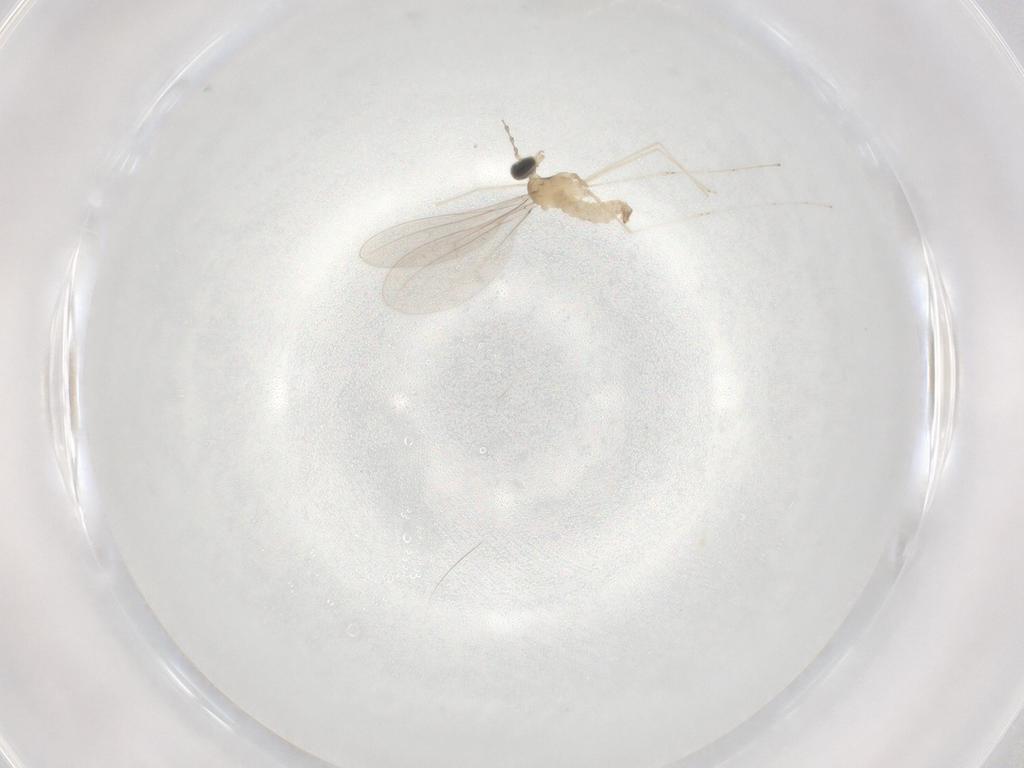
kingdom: Animalia
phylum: Arthropoda
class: Insecta
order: Diptera
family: Cecidomyiidae
